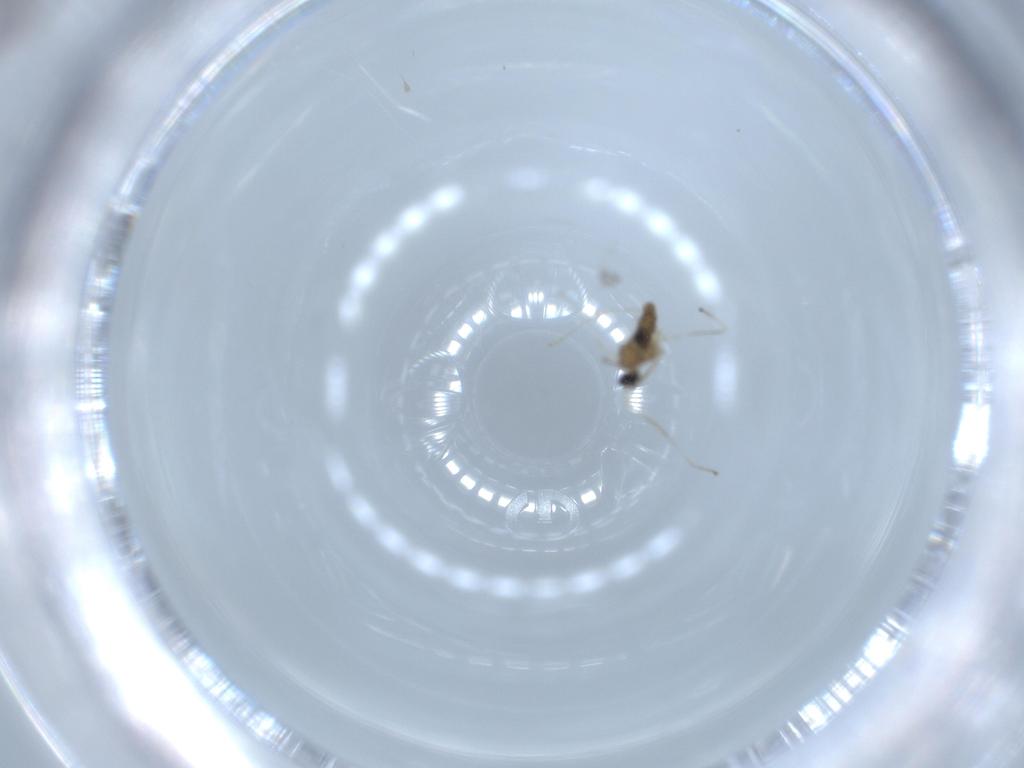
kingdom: Animalia
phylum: Arthropoda
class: Insecta
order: Diptera
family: Cecidomyiidae
